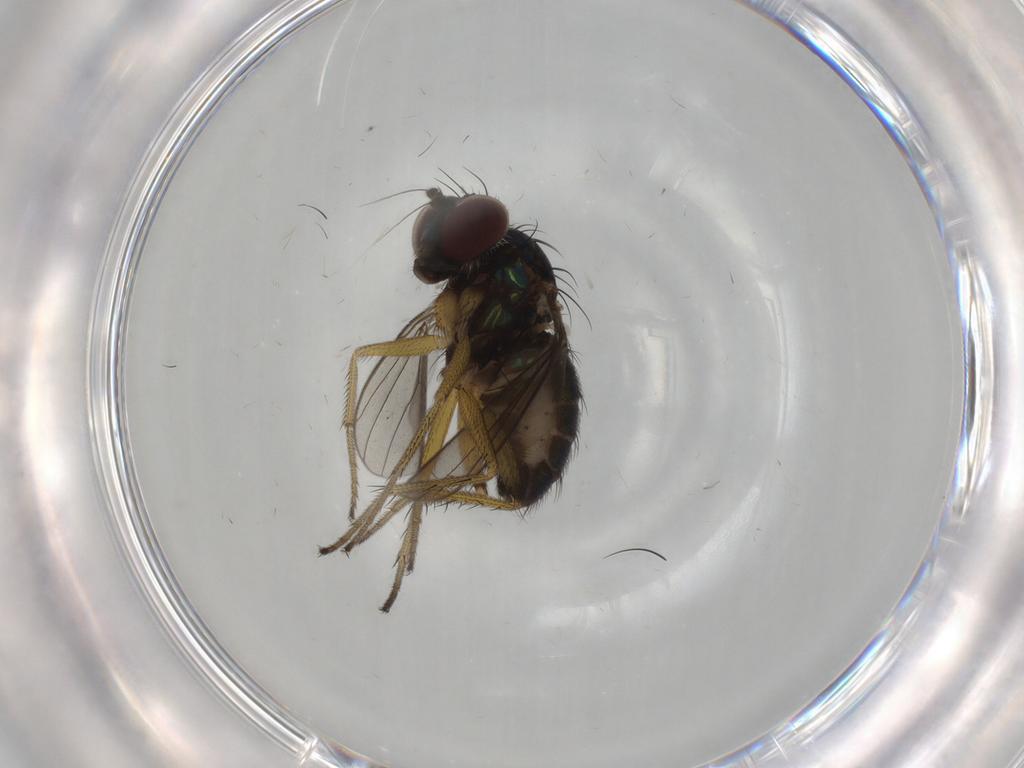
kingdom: Animalia
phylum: Arthropoda
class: Insecta
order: Diptera
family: Dolichopodidae
